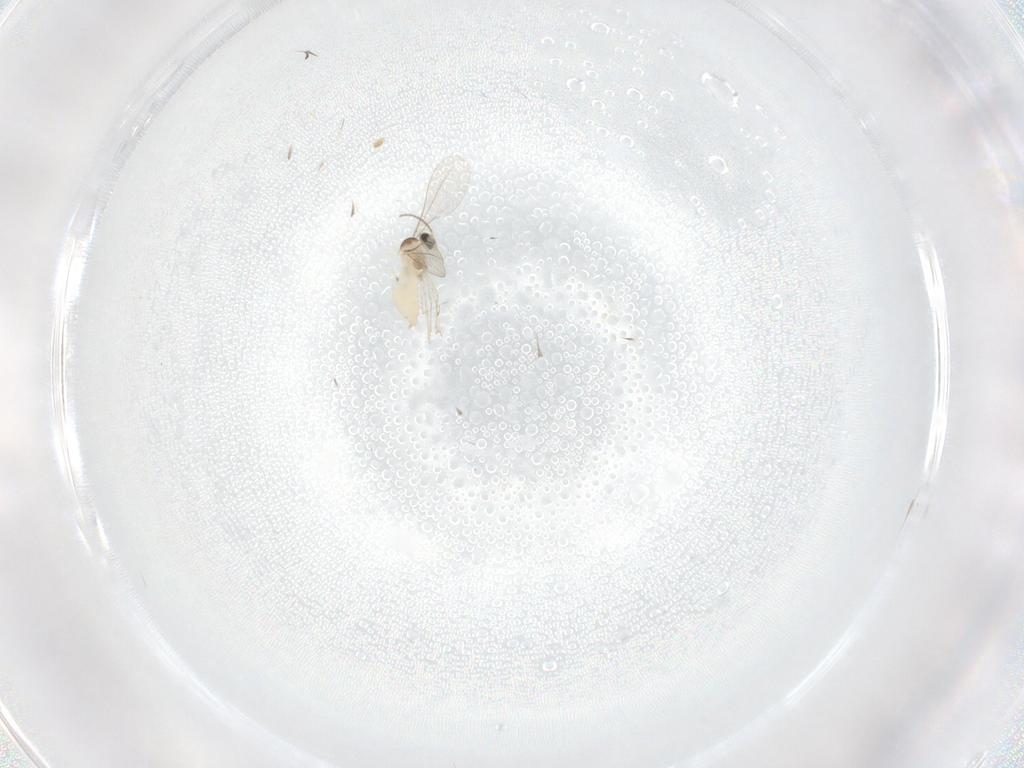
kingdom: Animalia
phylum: Arthropoda
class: Insecta
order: Diptera
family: Cecidomyiidae
